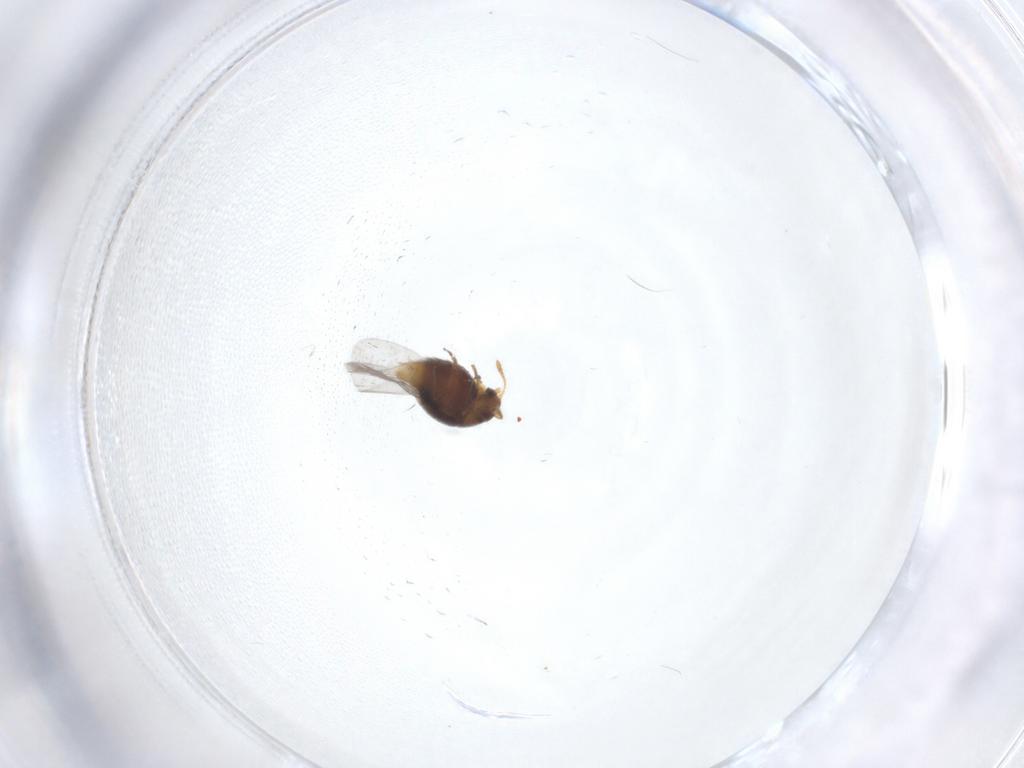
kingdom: Animalia
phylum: Arthropoda
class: Insecta
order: Coleoptera
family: Staphylinidae
